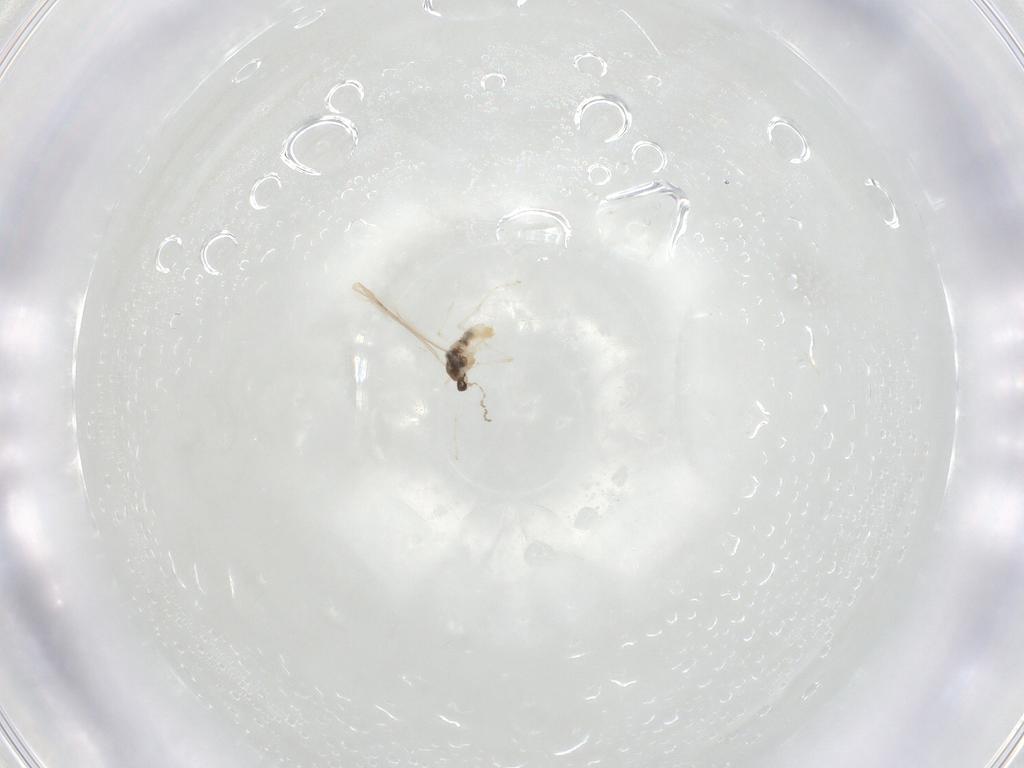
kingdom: Animalia
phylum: Arthropoda
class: Insecta
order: Diptera
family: Cecidomyiidae
